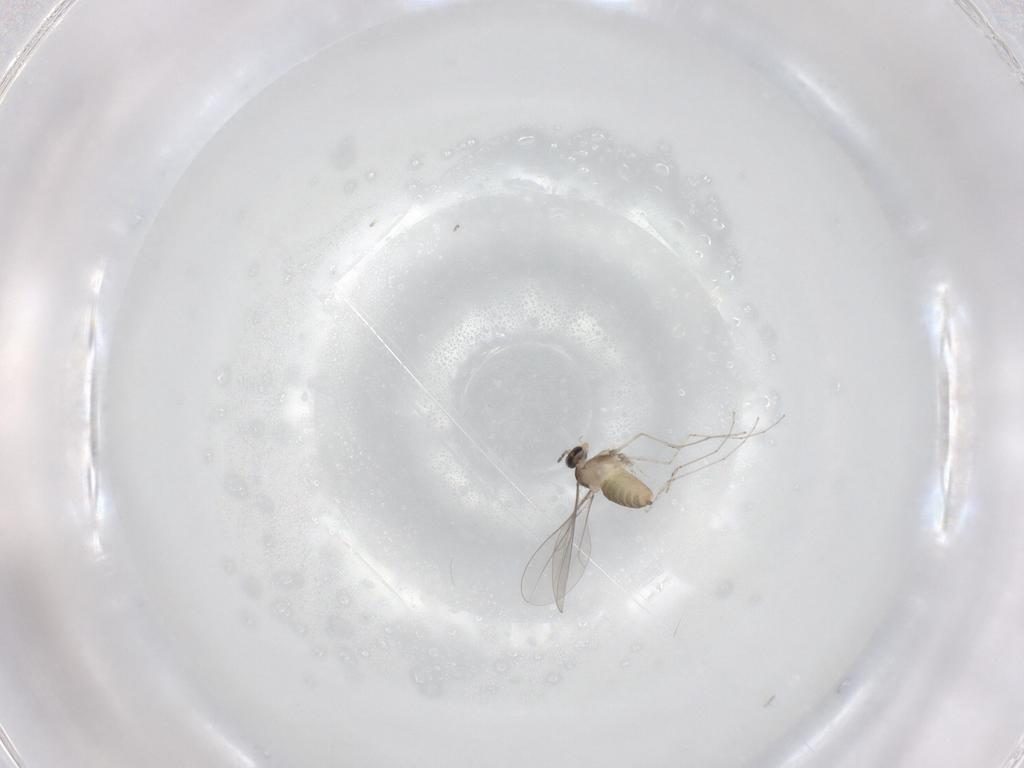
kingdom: Animalia
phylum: Arthropoda
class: Insecta
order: Diptera
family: Cecidomyiidae
